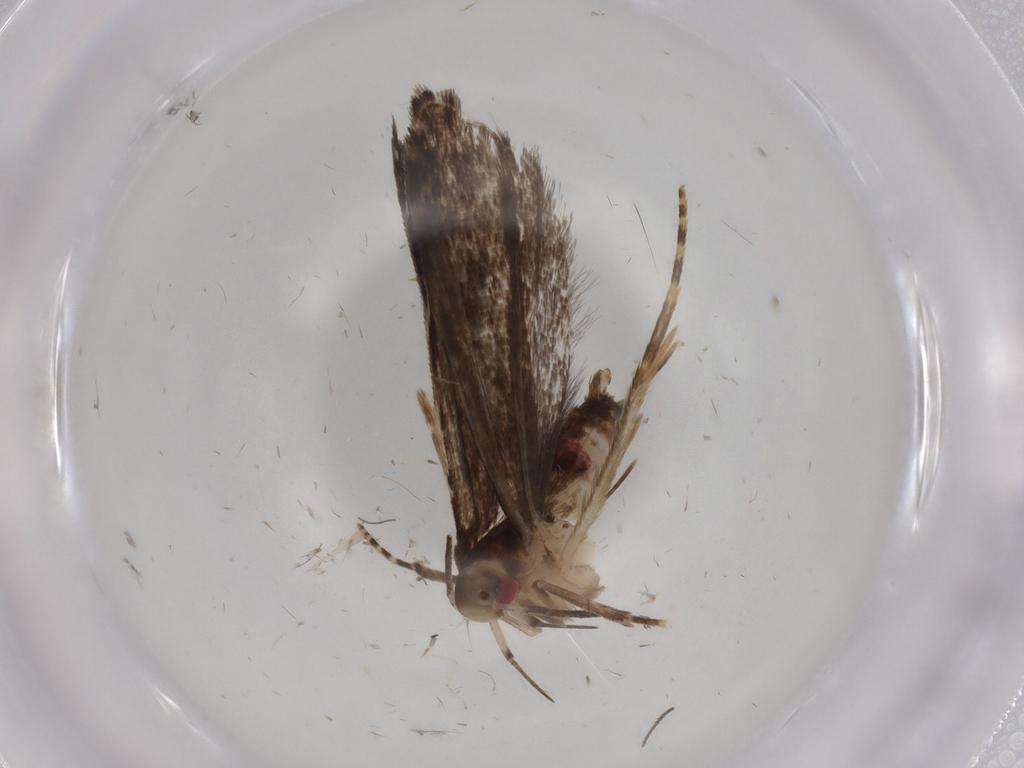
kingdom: Animalia
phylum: Arthropoda
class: Insecta
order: Lepidoptera
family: Gelechiidae
